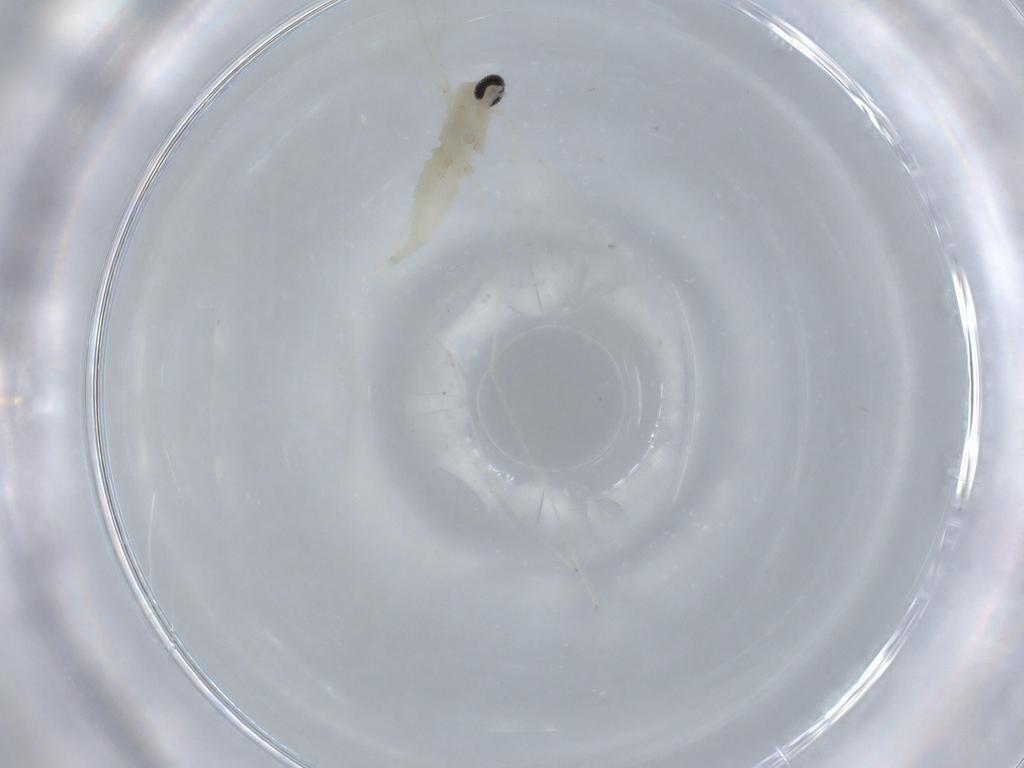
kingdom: Animalia
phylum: Arthropoda
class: Insecta
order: Diptera
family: Cecidomyiidae
